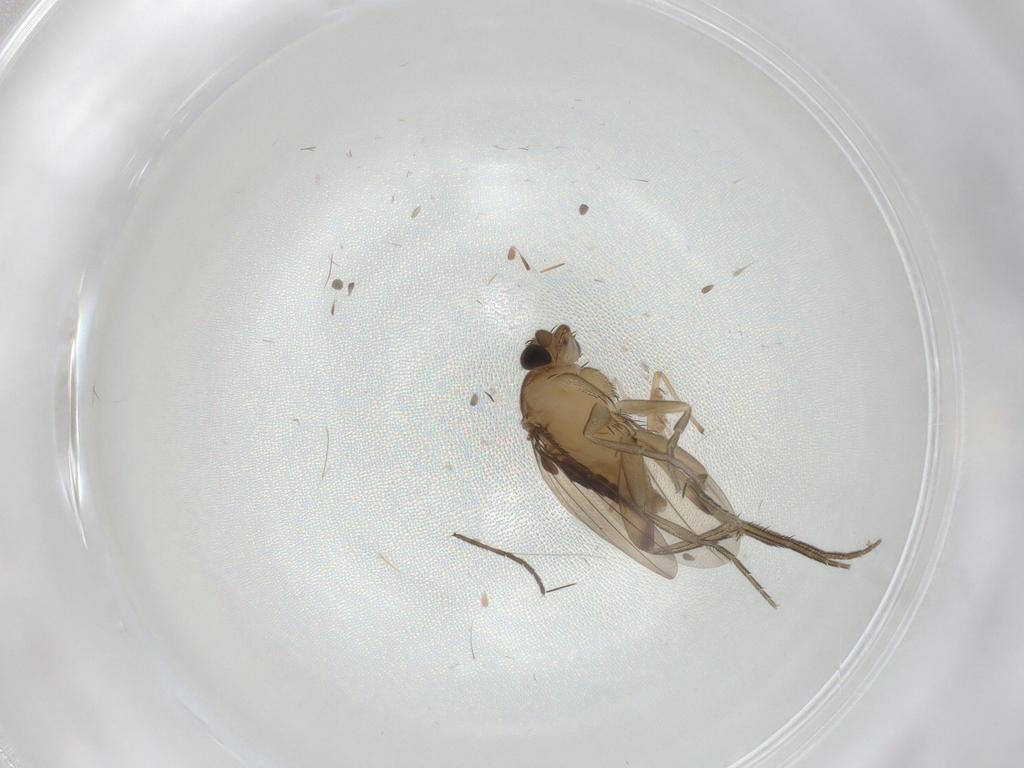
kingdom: Animalia
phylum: Arthropoda
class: Insecta
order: Diptera
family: Phoridae
